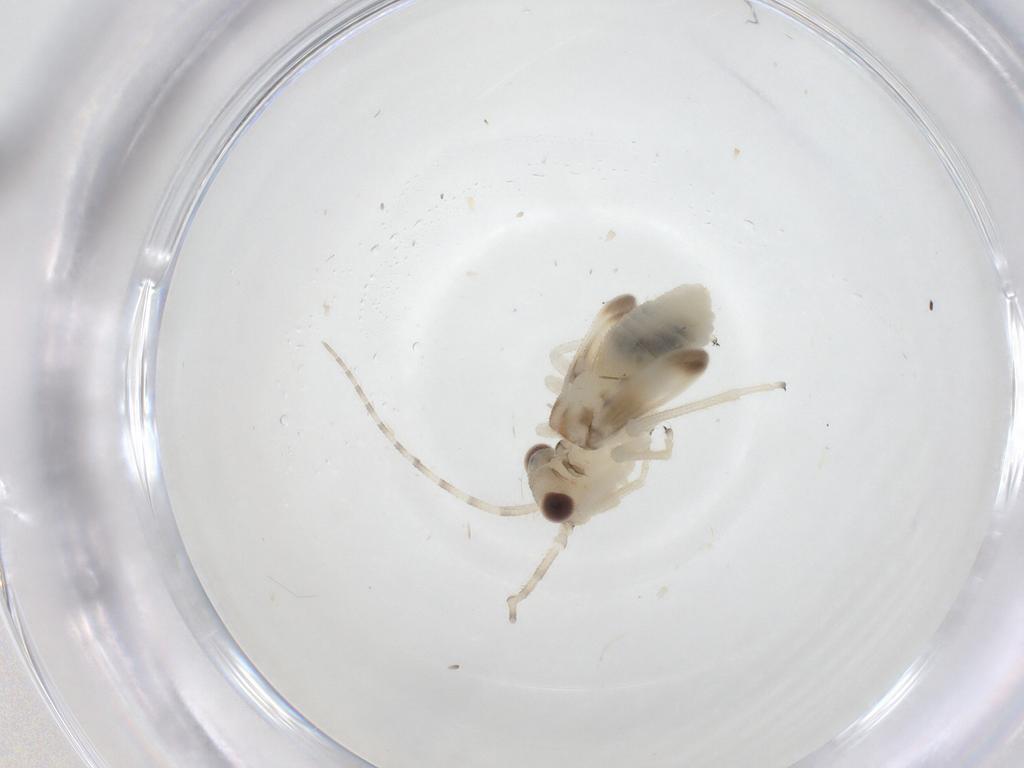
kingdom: Animalia
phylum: Arthropoda
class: Insecta
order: Psocodea
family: Amphipsocidae
